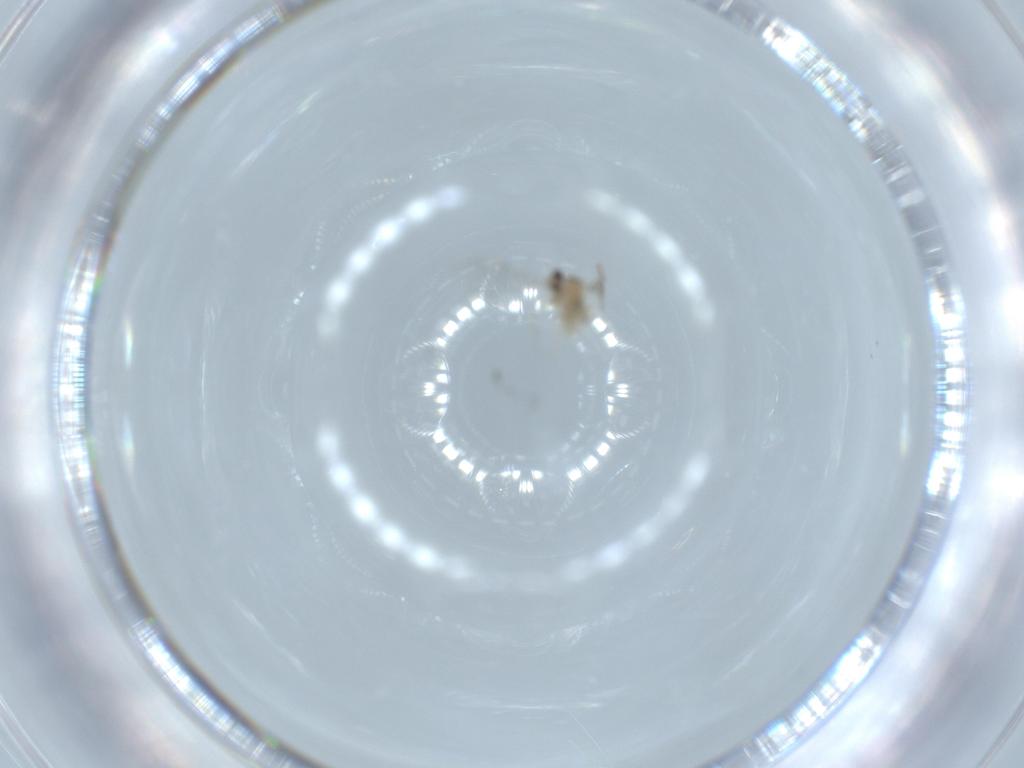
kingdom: Animalia
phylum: Arthropoda
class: Insecta
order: Diptera
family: Cecidomyiidae
